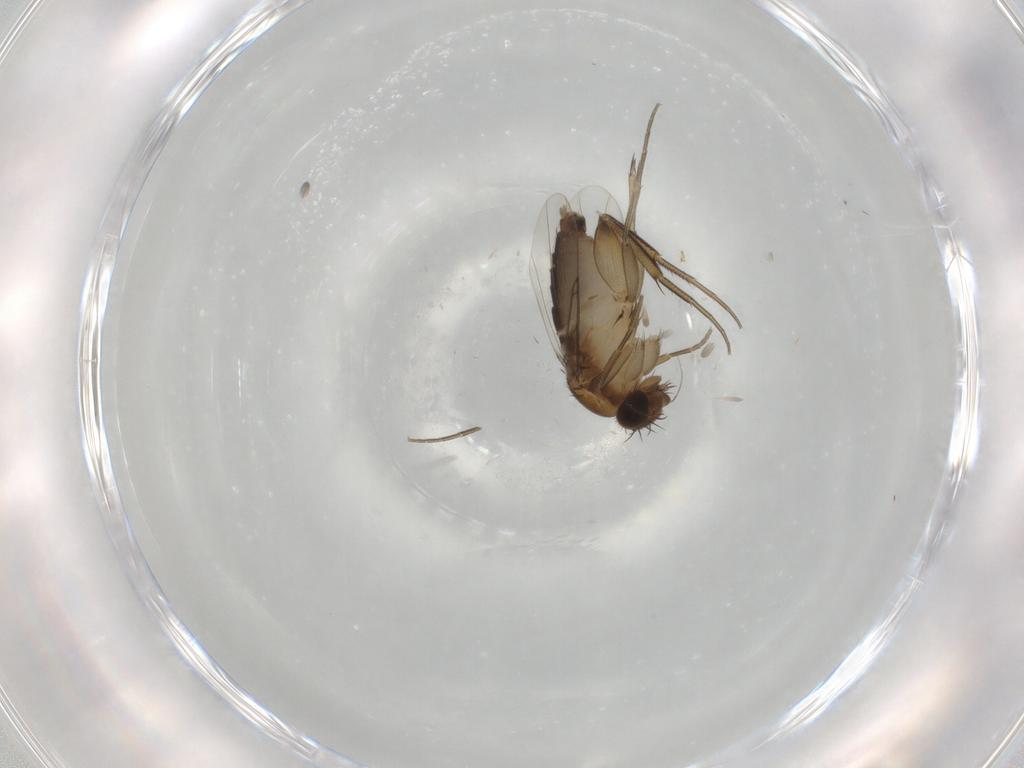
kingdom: Animalia
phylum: Arthropoda
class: Insecta
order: Diptera
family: Phoridae
